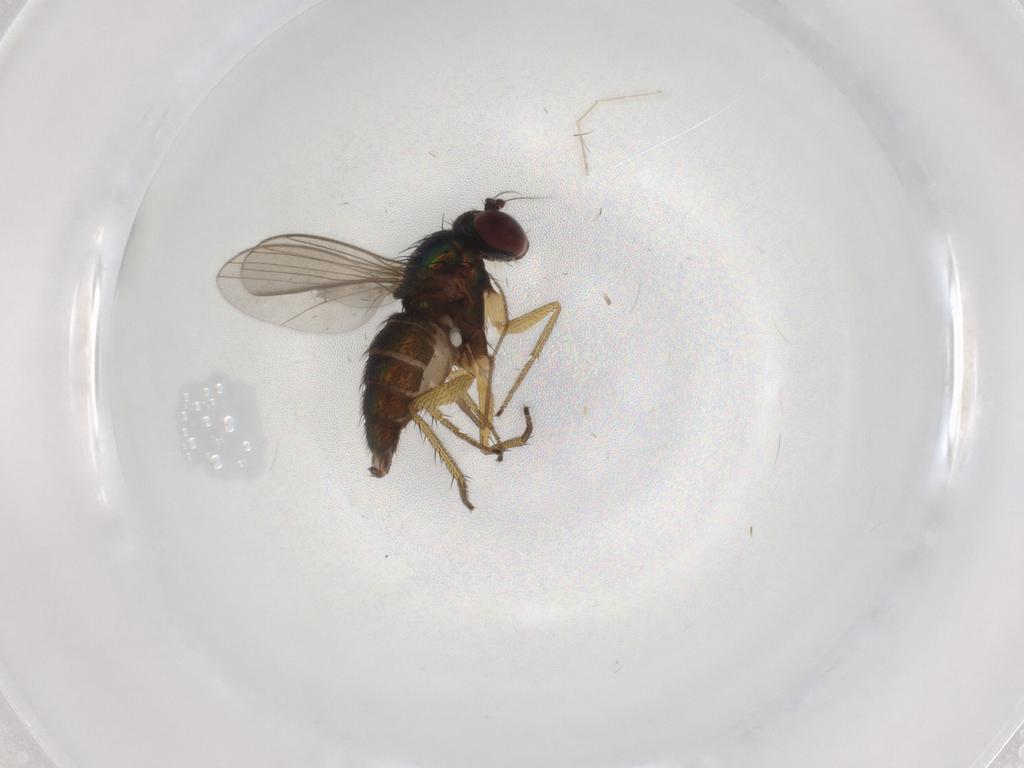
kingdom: Animalia
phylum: Arthropoda
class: Insecta
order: Diptera
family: Dolichopodidae
